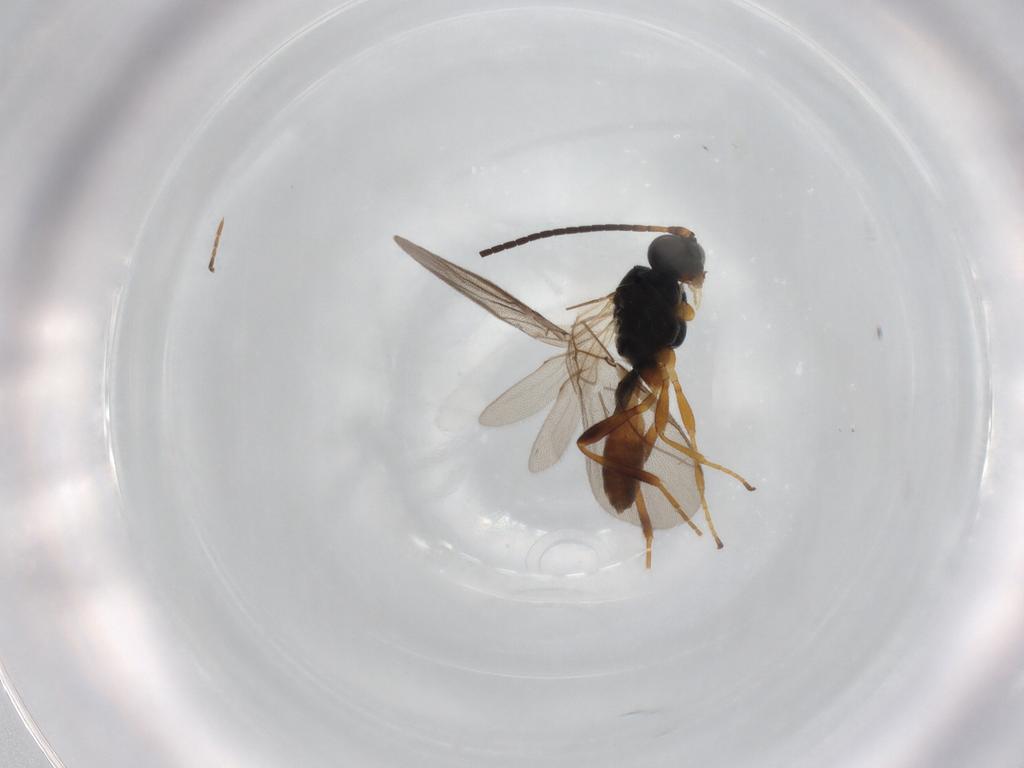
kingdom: Animalia
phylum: Arthropoda
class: Insecta
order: Hymenoptera
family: Braconidae
